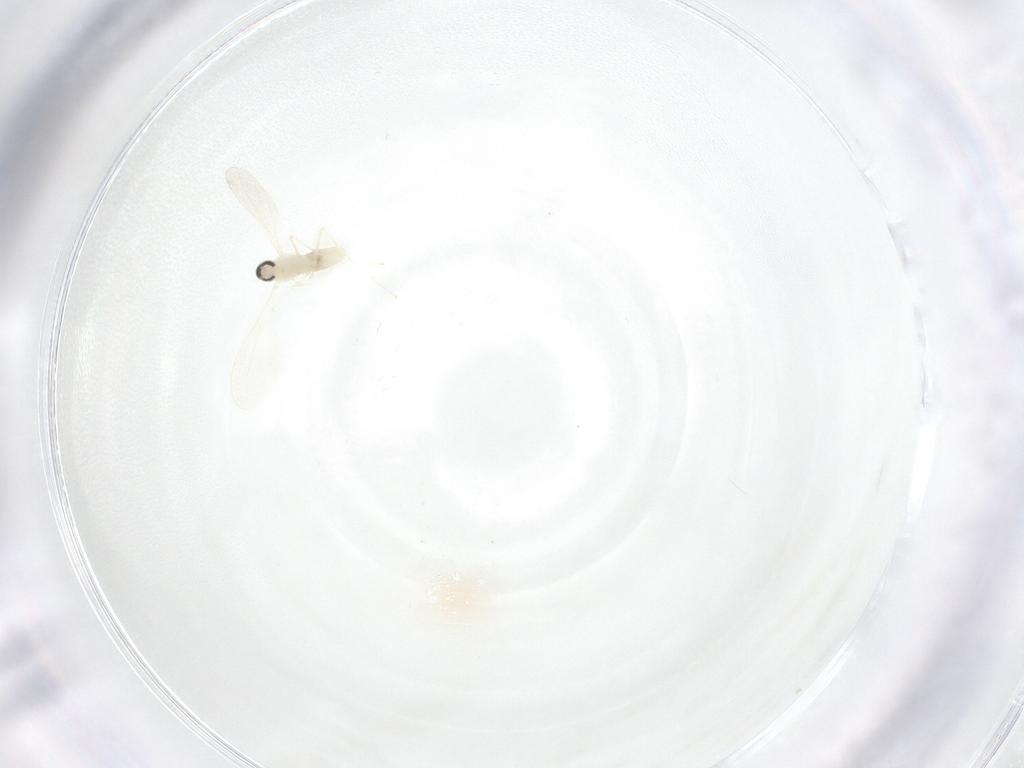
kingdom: Animalia
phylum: Arthropoda
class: Insecta
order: Diptera
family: Cecidomyiidae
